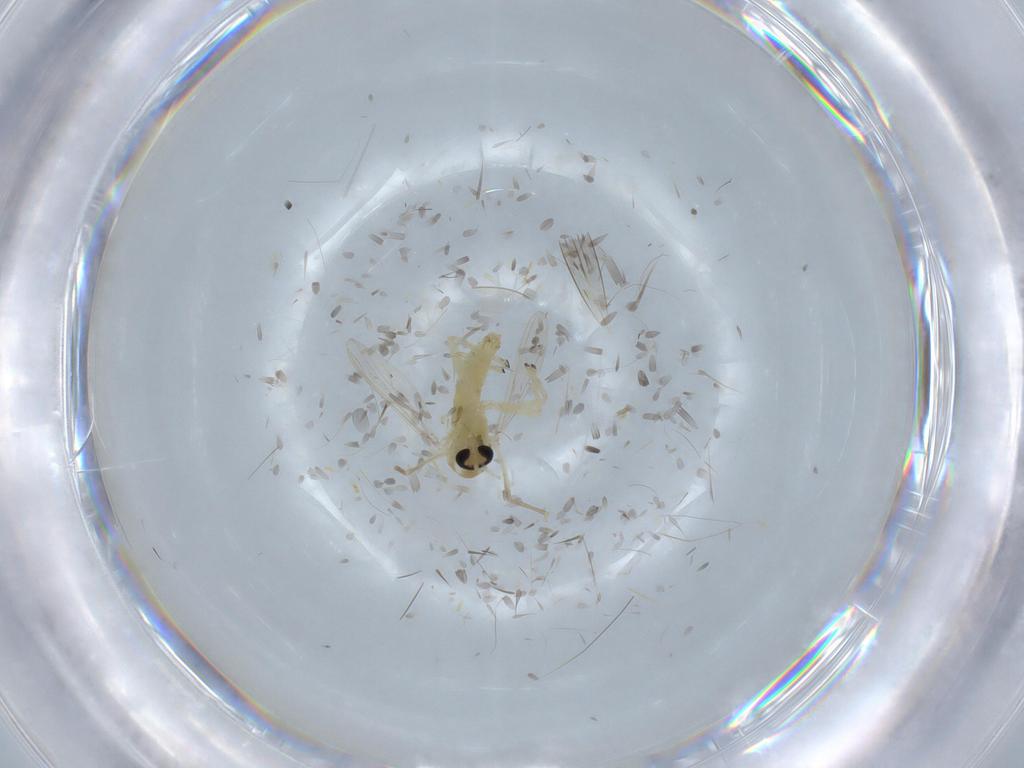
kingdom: Animalia
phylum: Arthropoda
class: Insecta
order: Diptera
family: Chironomidae
